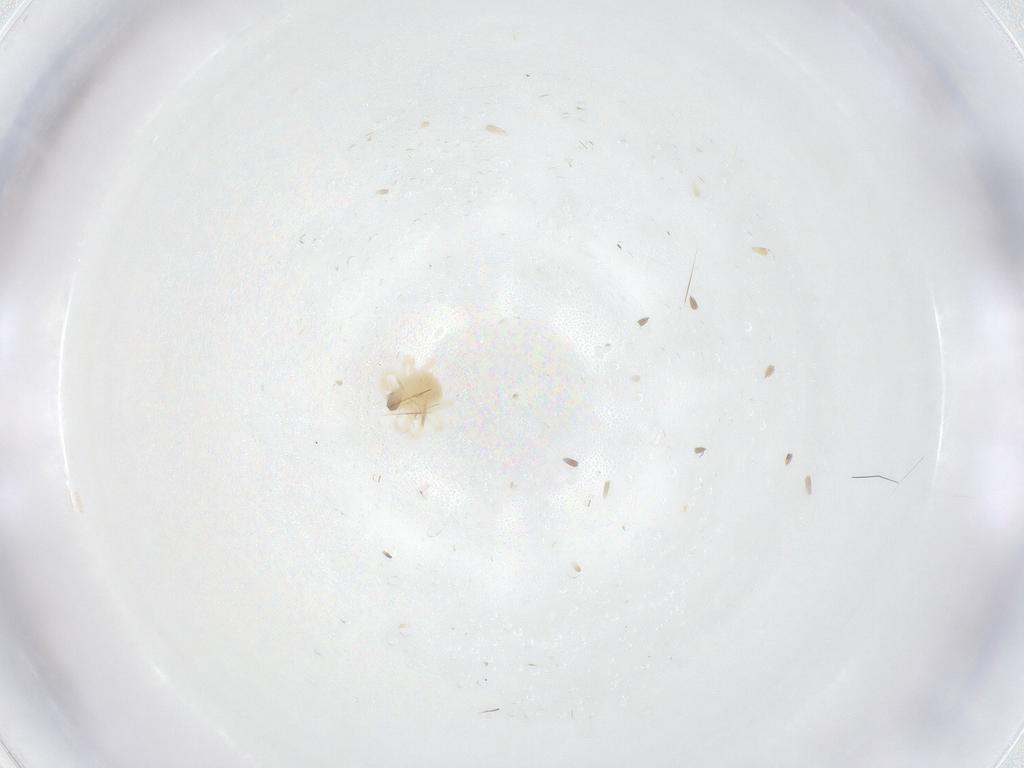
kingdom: Animalia
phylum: Arthropoda
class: Arachnida
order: Trombidiformes
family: Anystidae
